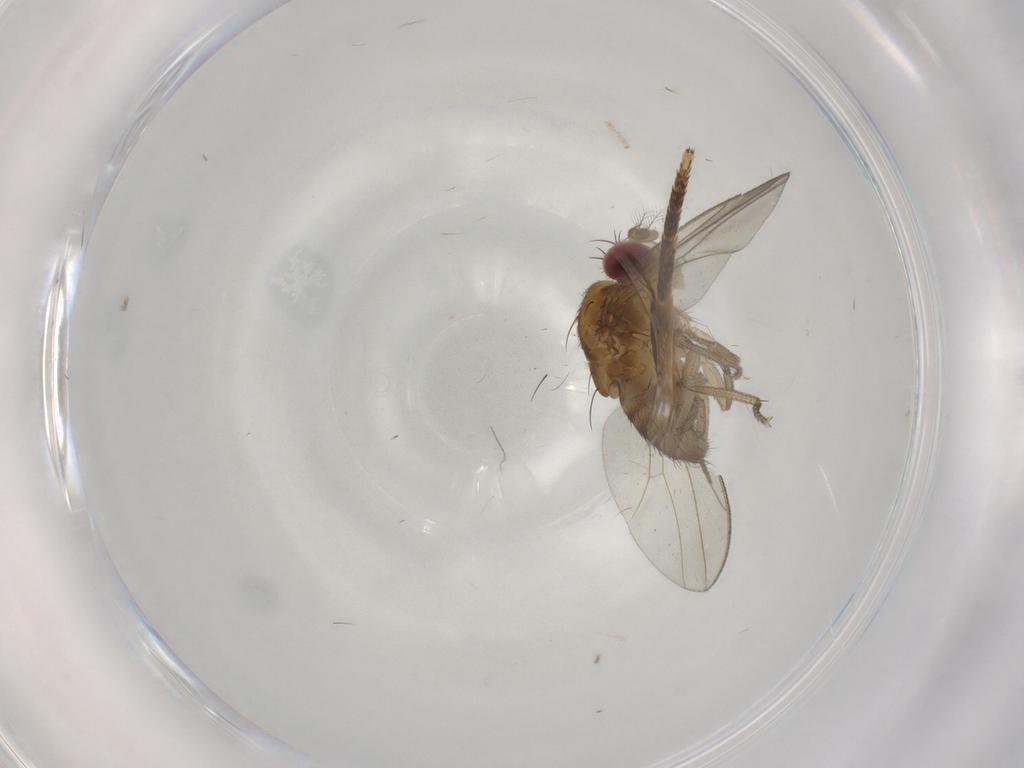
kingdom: Animalia
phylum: Arthropoda
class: Insecta
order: Diptera
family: Drosophilidae
